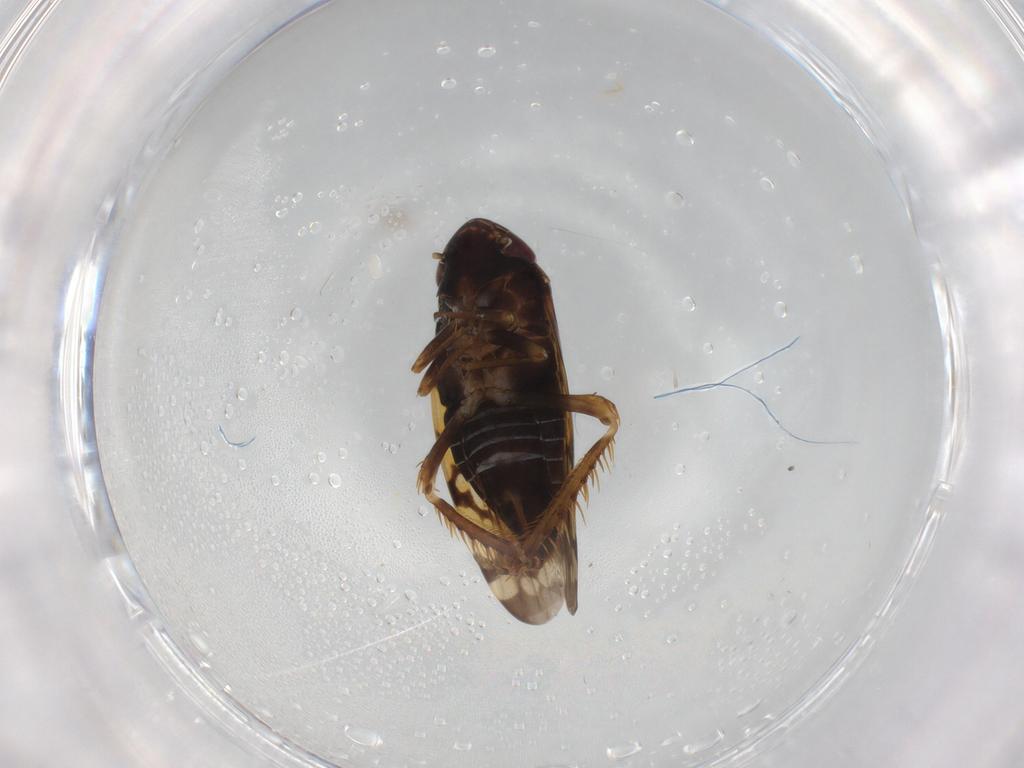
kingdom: Animalia
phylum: Arthropoda
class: Insecta
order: Hemiptera
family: Cicadellidae
